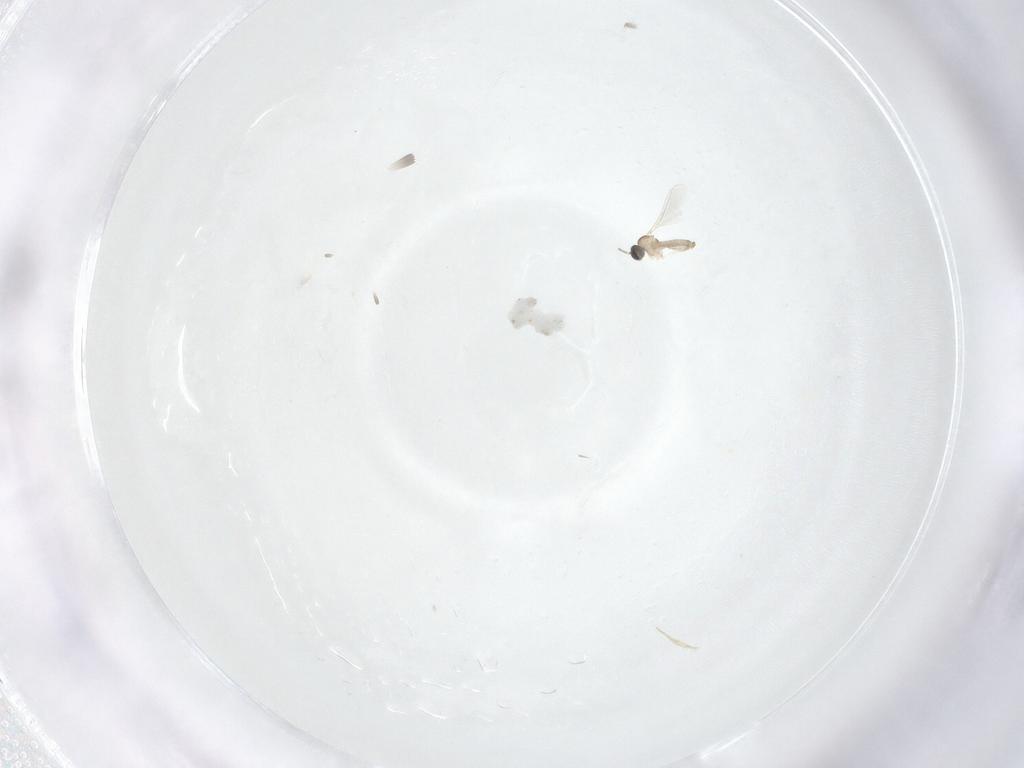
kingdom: Animalia
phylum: Arthropoda
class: Insecta
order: Diptera
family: Drosophilidae
